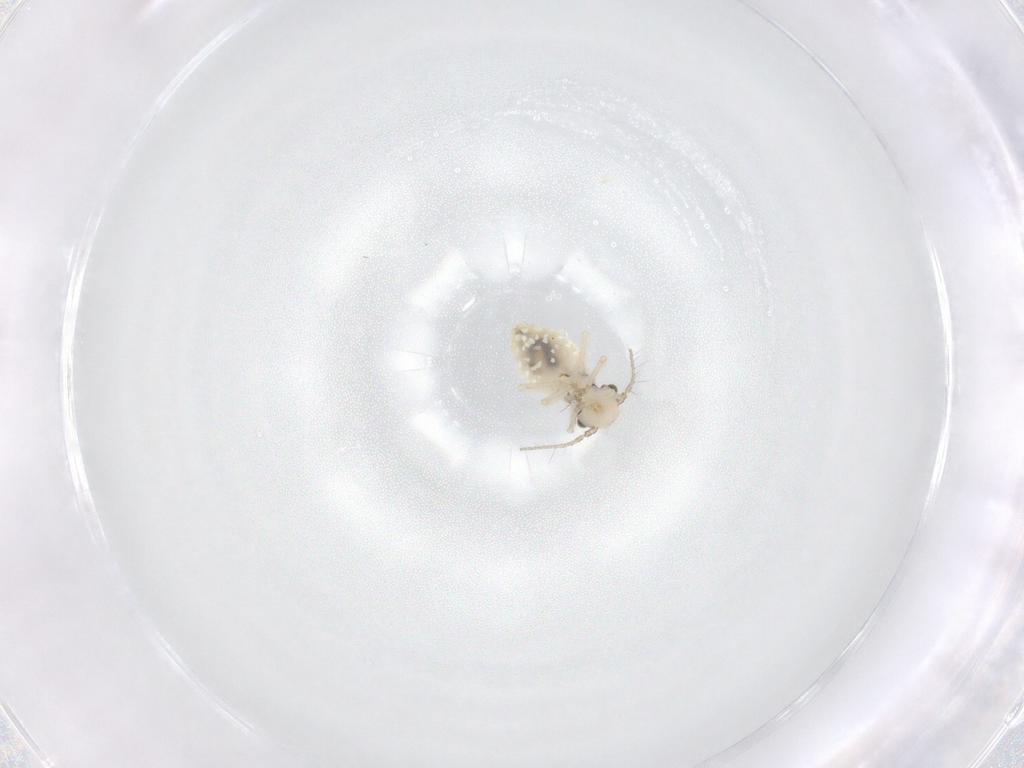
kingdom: Animalia
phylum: Arthropoda
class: Insecta
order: Psocodea
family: Pseudocaeciliidae
